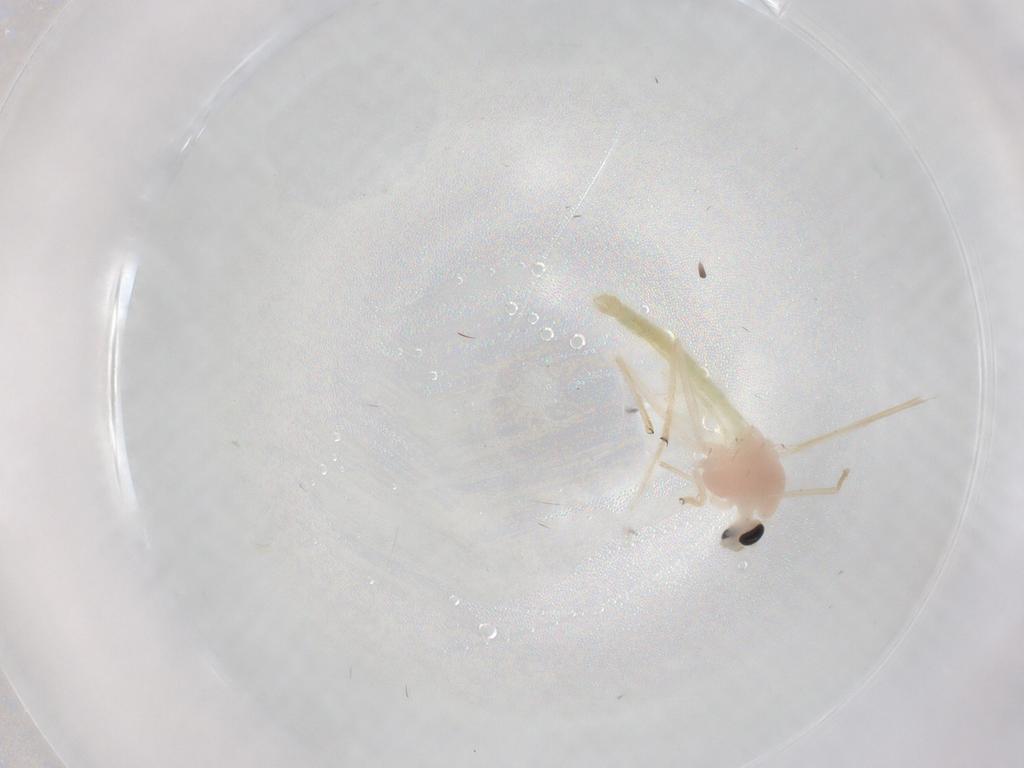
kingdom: Animalia
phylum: Arthropoda
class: Insecta
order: Diptera
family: Chironomidae
